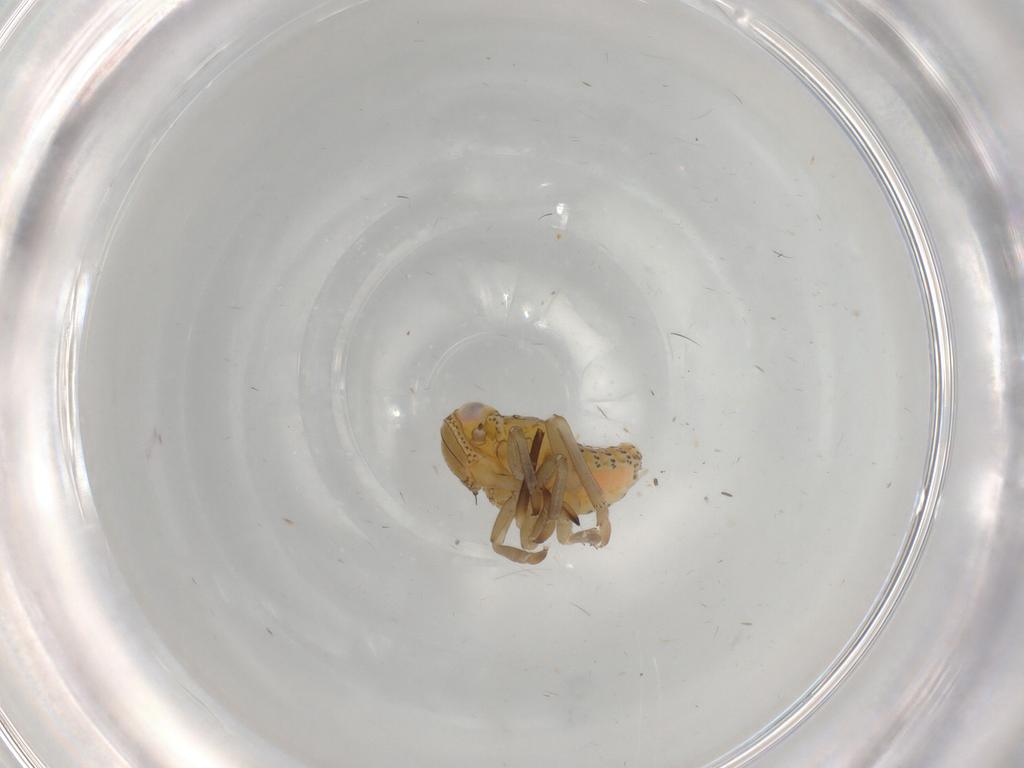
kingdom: Animalia
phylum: Arthropoda
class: Insecta
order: Hemiptera
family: Tropiduchidae
